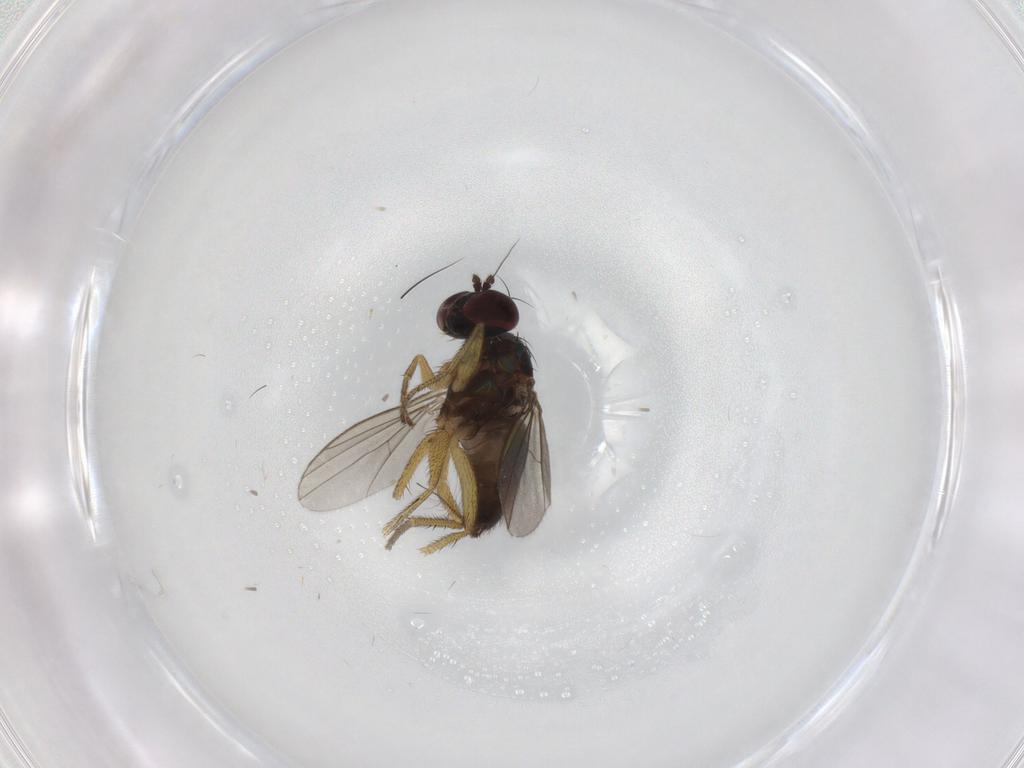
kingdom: Animalia
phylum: Arthropoda
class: Insecta
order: Diptera
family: Dolichopodidae
